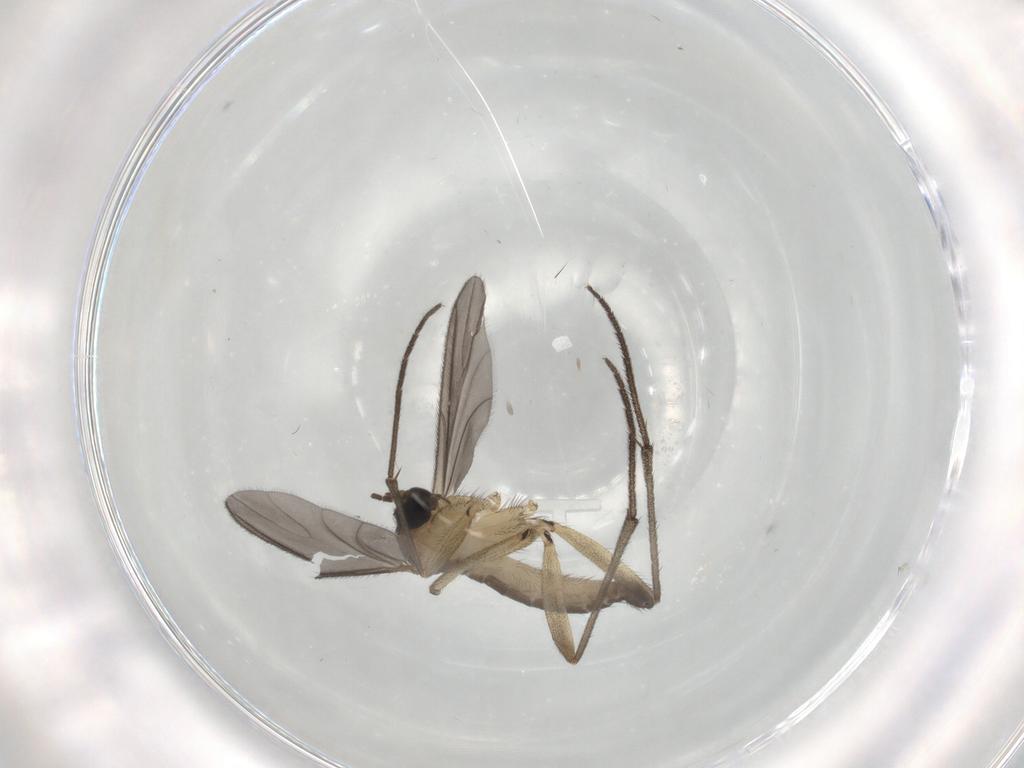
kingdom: Animalia
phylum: Arthropoda
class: Insecta
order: Diptera
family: Sciaridae
